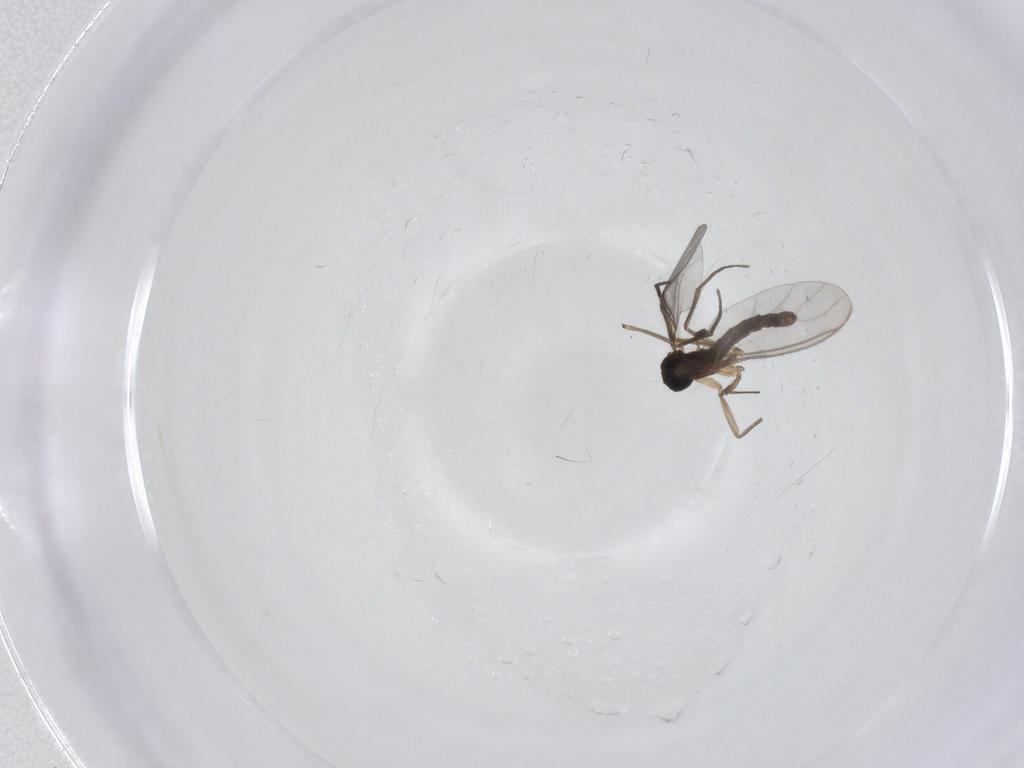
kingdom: Animalia
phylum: Arthropoda
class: Insecta
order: Diptera
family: Chironomidae
